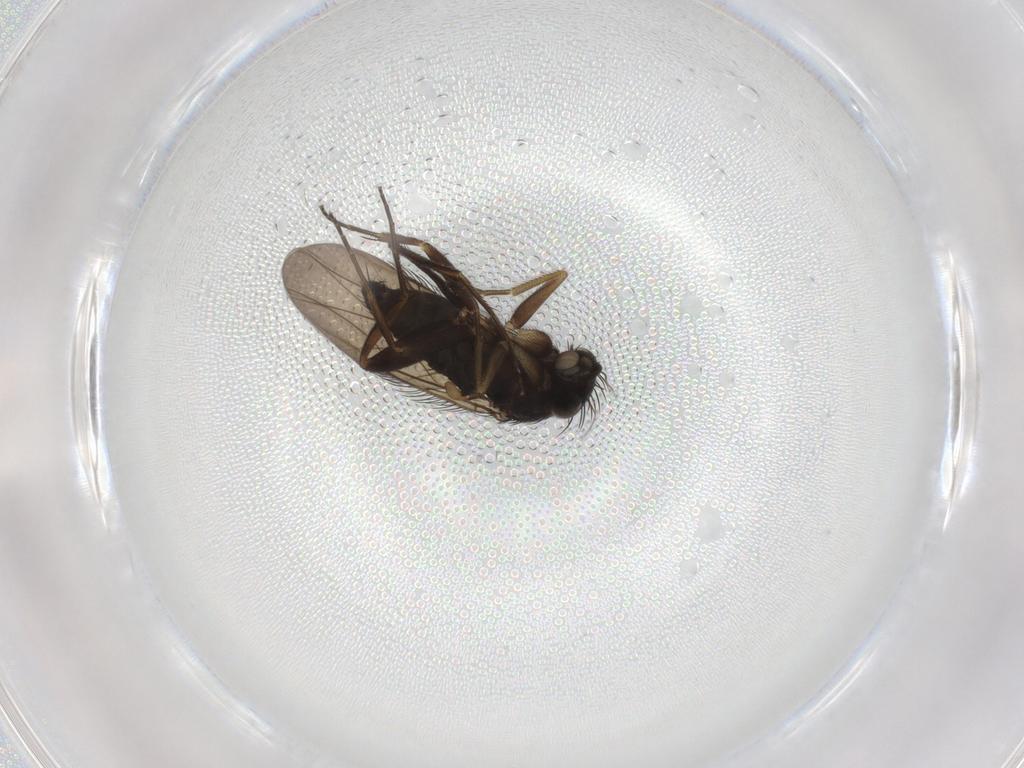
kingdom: Animalia
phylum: Arthropoda
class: Insecta
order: Diptera
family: Phoridae
